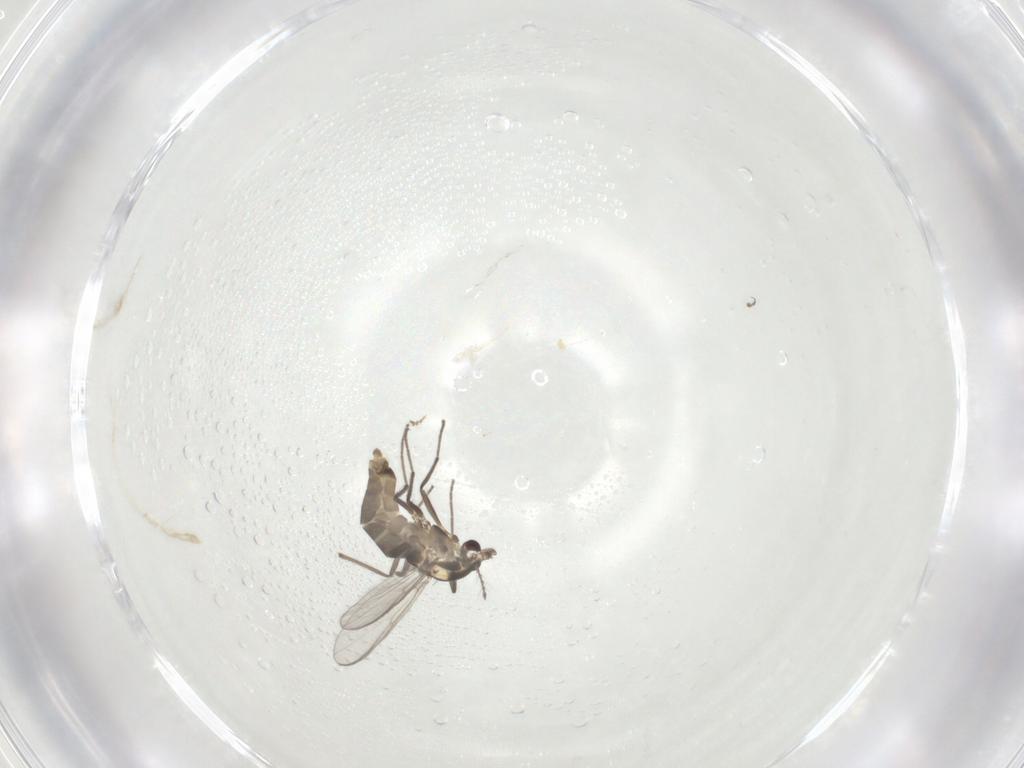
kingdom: Animalia
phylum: Arthropoda
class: Insecta
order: Diptera
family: Chironomidae
